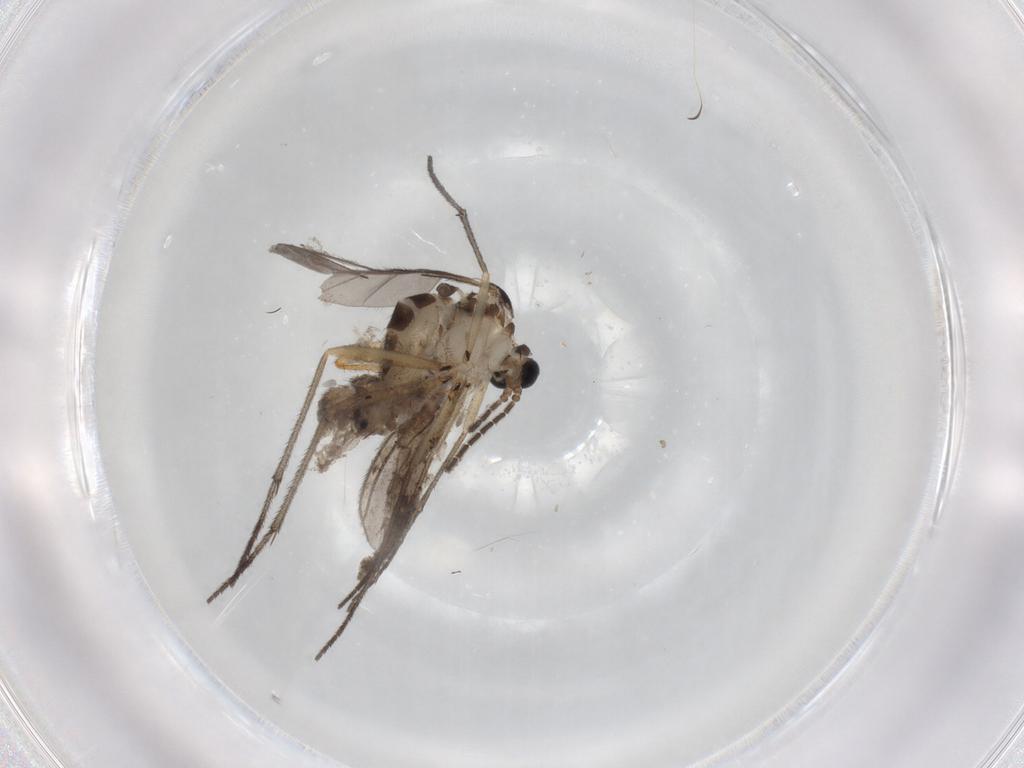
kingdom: Animalia
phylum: Arthropoda
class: Insecta
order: Diptera
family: Sciaridae
